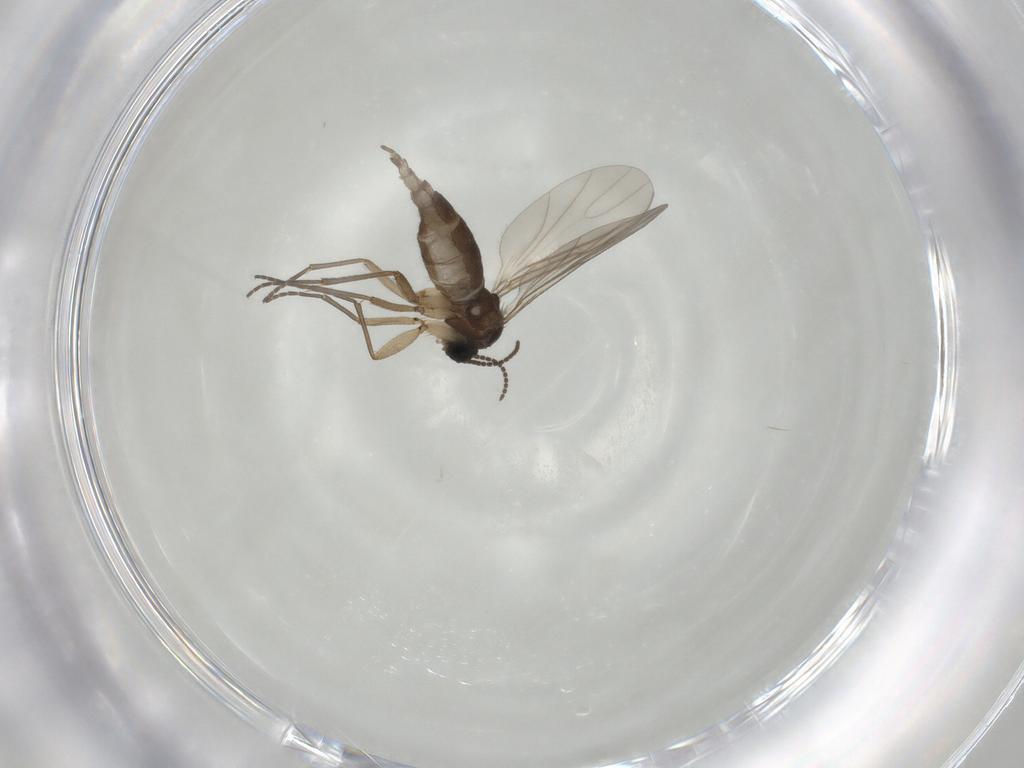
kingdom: Animalia
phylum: Arthropoda
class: Insecta
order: Diptera
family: Sciaridae
